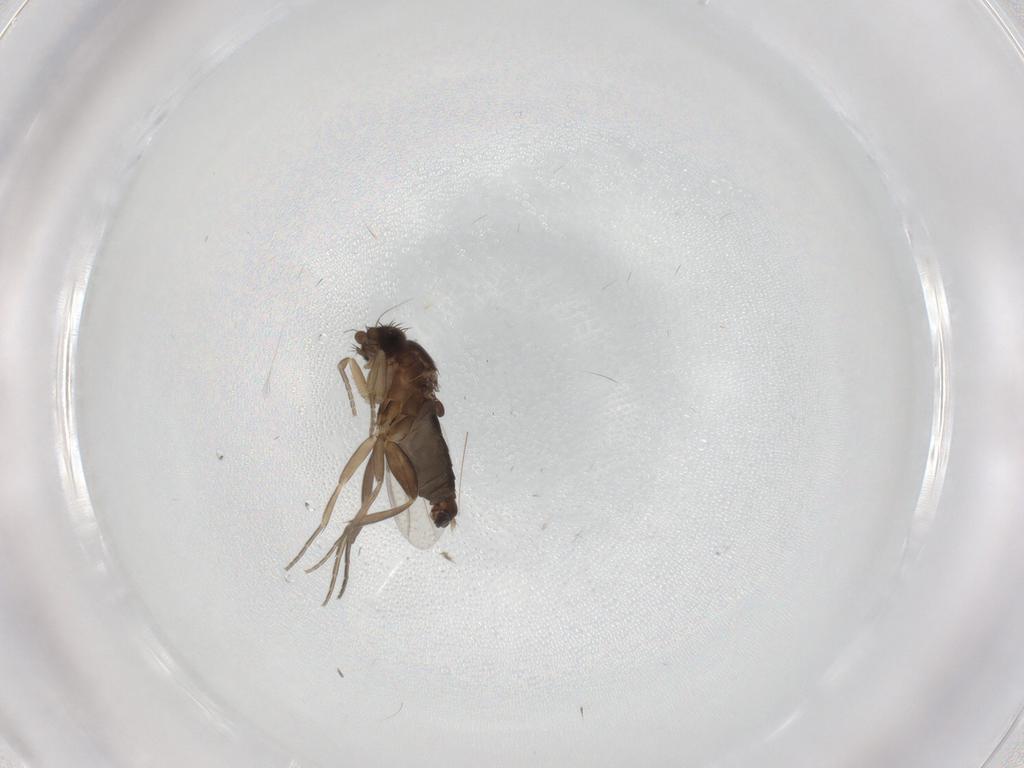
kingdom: Animalia
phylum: Arthropoda
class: Insecta
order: Diptera
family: Phoridae
